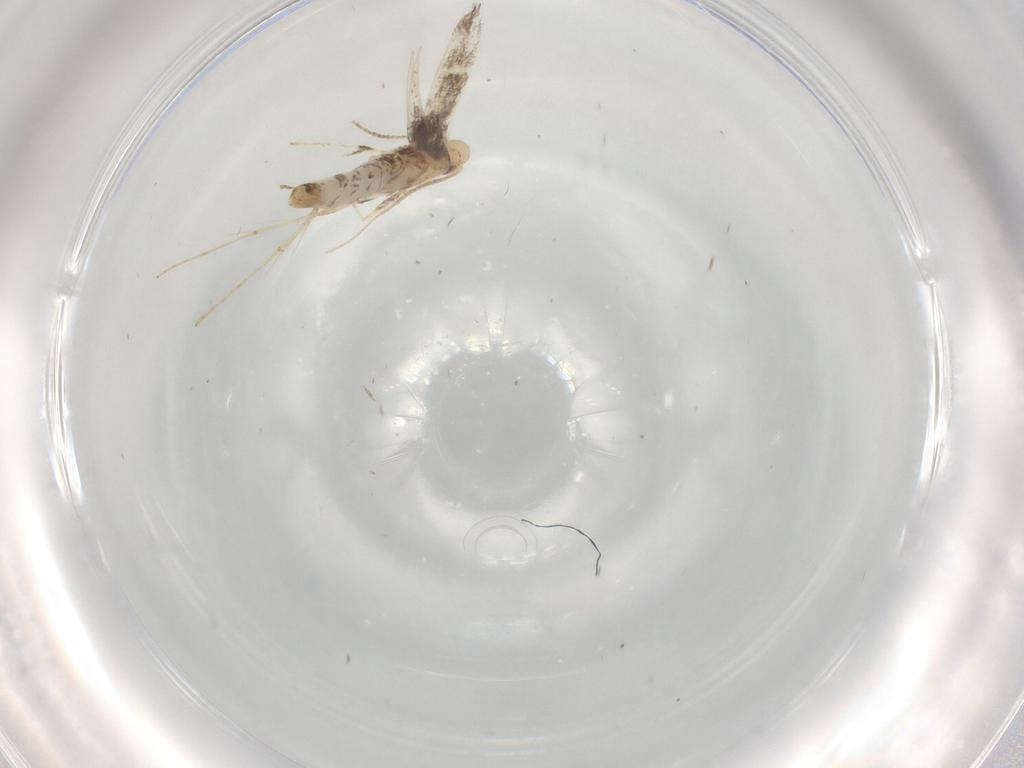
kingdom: Animalia
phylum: Arthropoda
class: Insecta
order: Lepidoptera
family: Gracillariidae
